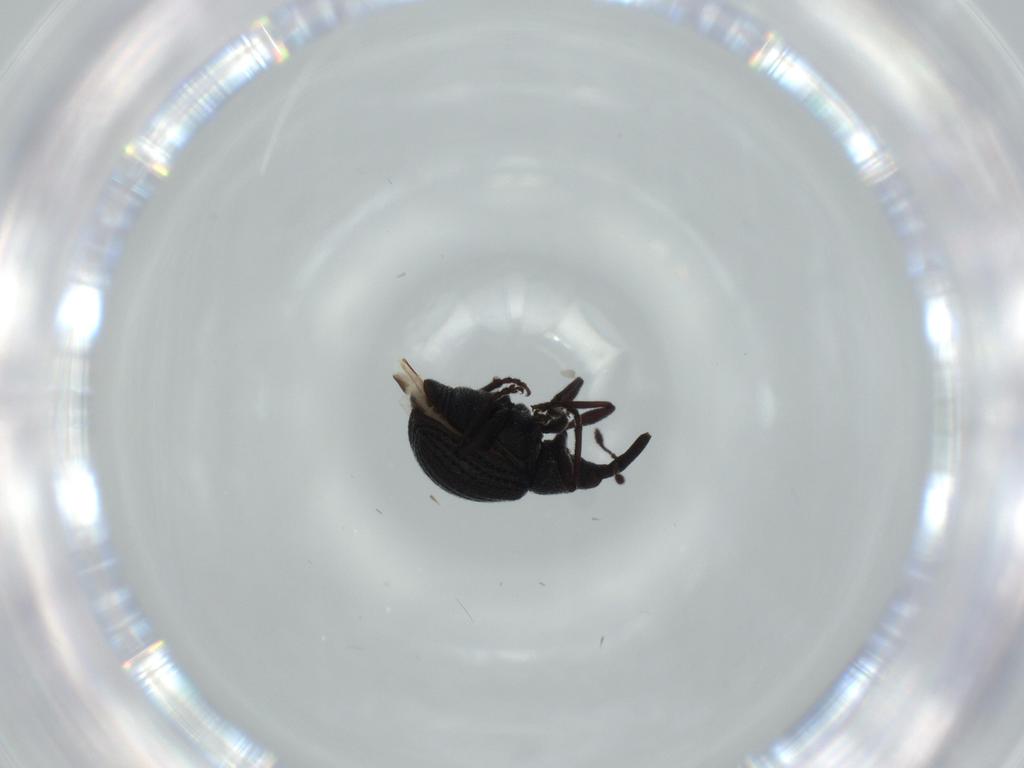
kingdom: Animalia
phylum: Arthropoda
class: Insecta
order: Coleoptera
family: Brentidae
